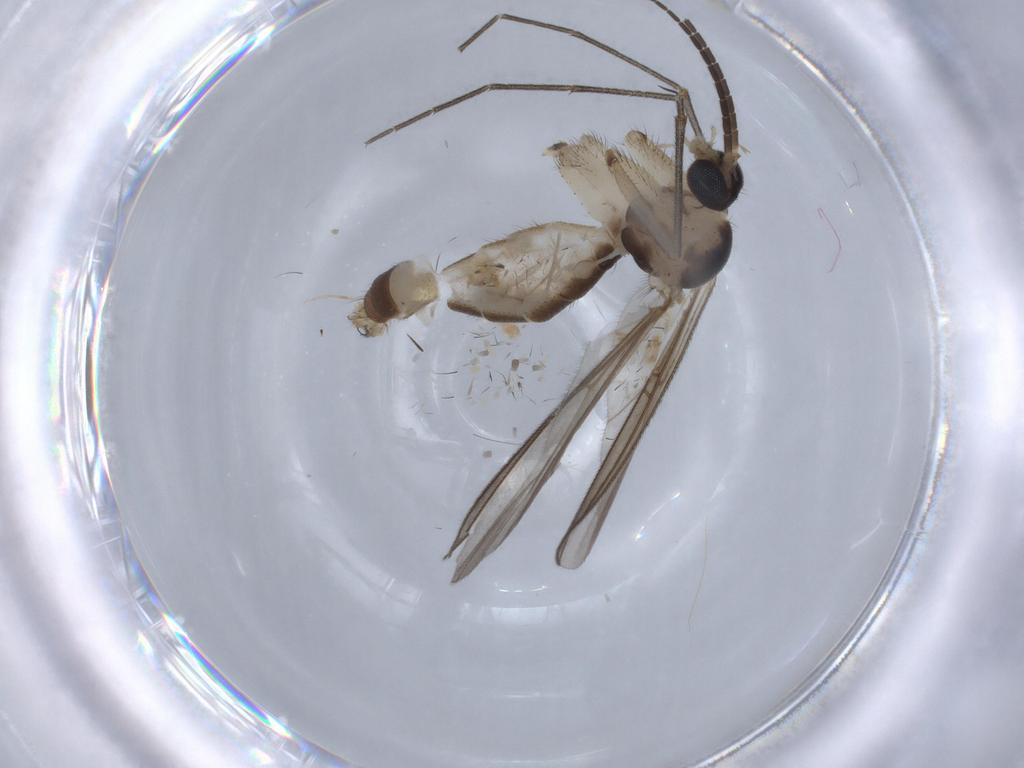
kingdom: Animalia
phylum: Arthropoda
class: Insecta
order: Diptera
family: Mycetophilidae
